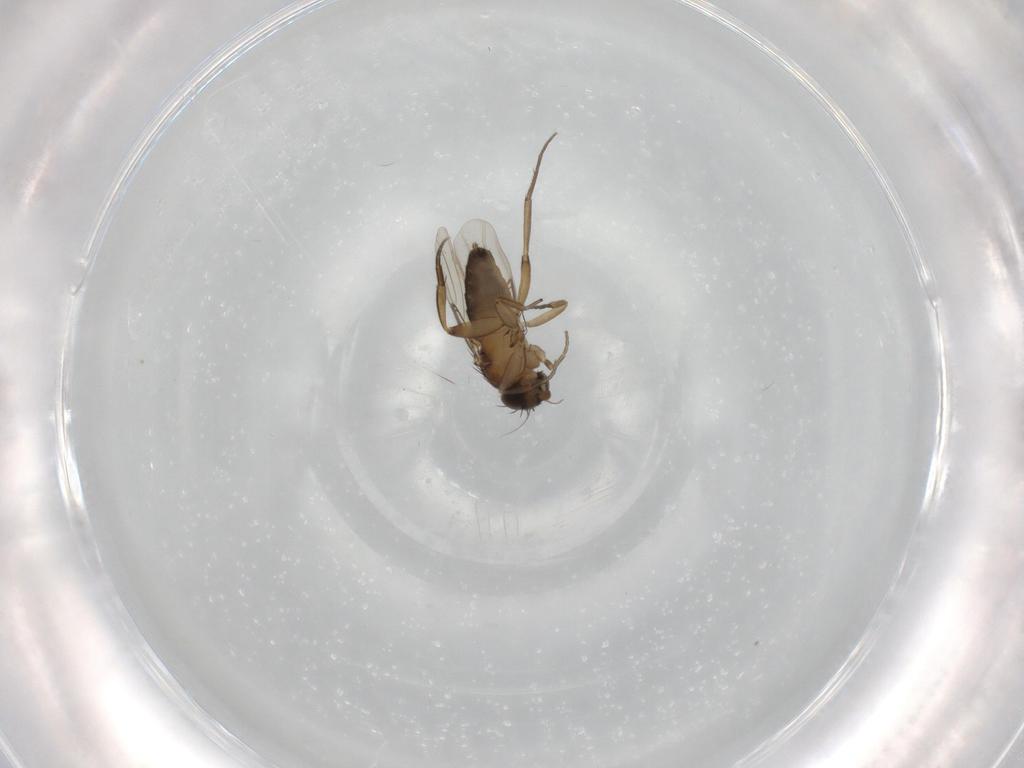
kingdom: Animalia
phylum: Arthropoda
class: Insecta
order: Diptera
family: Phoridae
